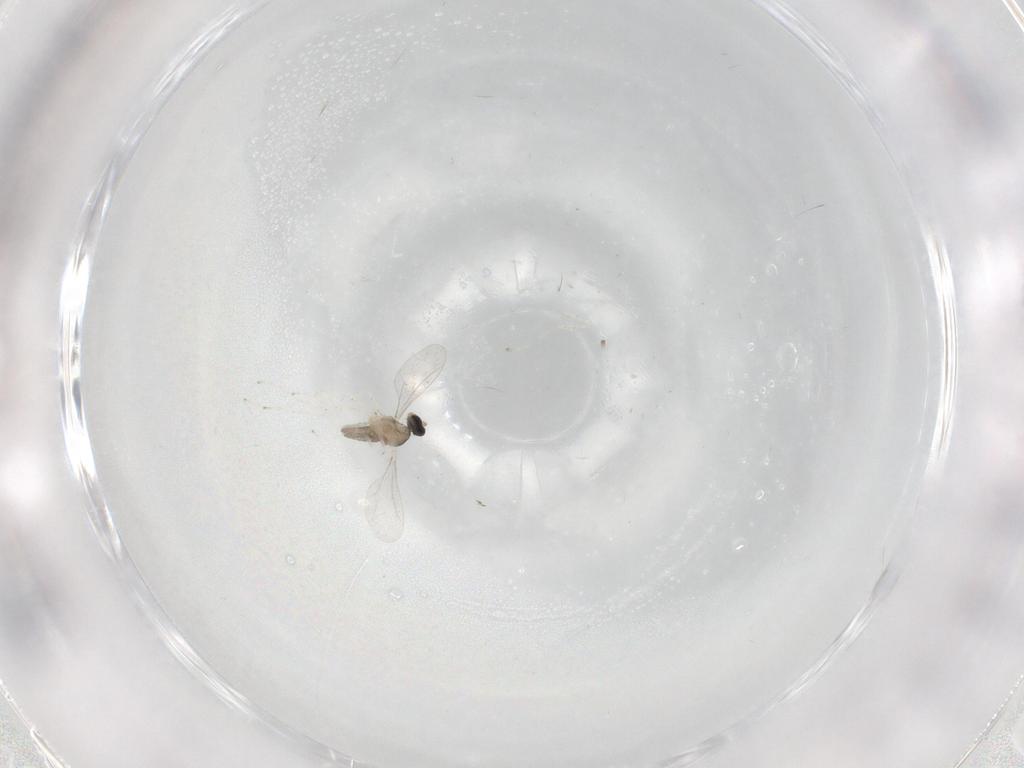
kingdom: Animalia
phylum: Arthropoda
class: Insecta
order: Diptera
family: Cecidomyiidae
